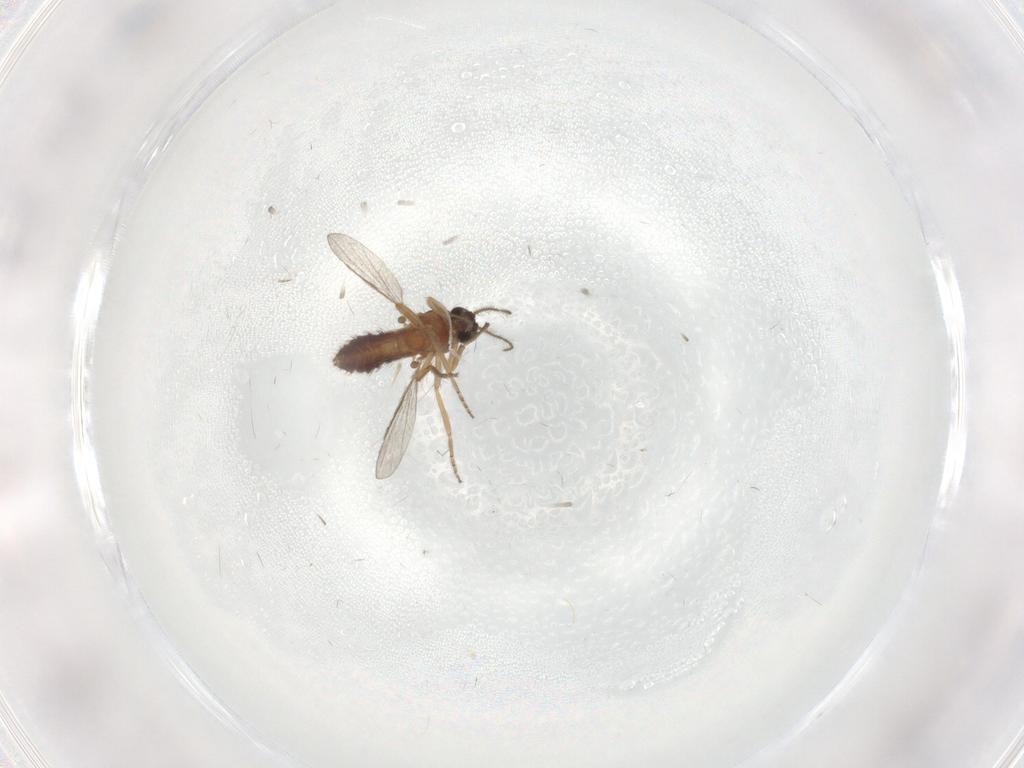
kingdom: Animalia
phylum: Arthropoda
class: Insecta
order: Diptera
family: Ceratopogonidae
